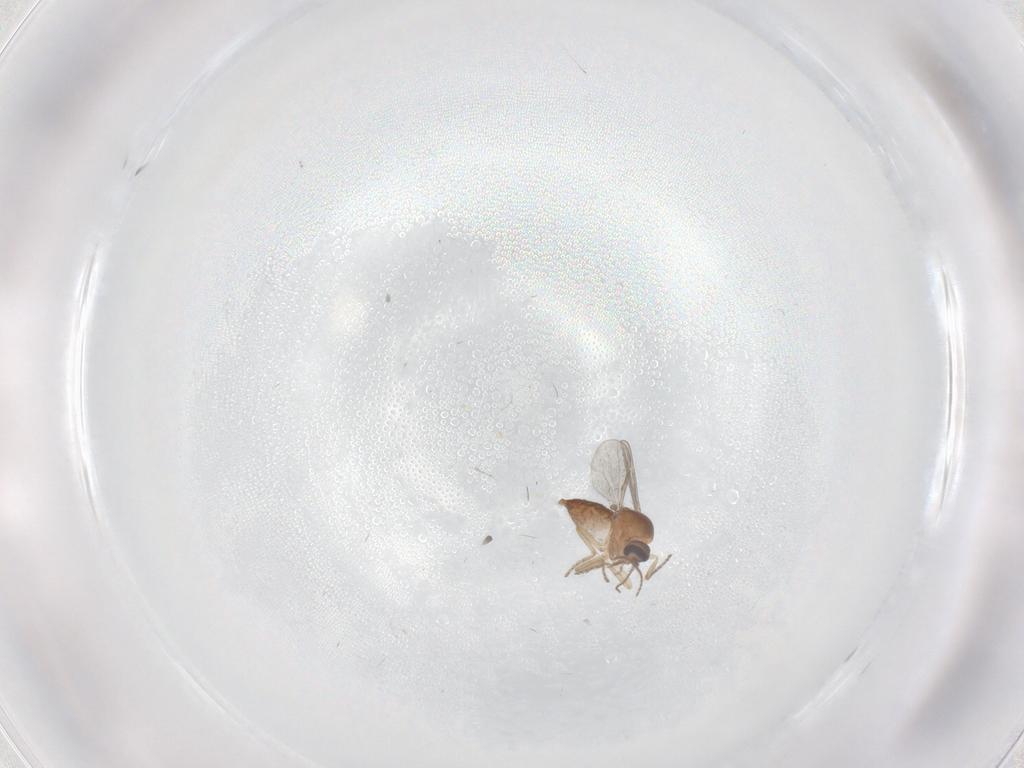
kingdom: Animalia
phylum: Arthropoda
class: Insecta
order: Diptera
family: Ceratopogonidae
